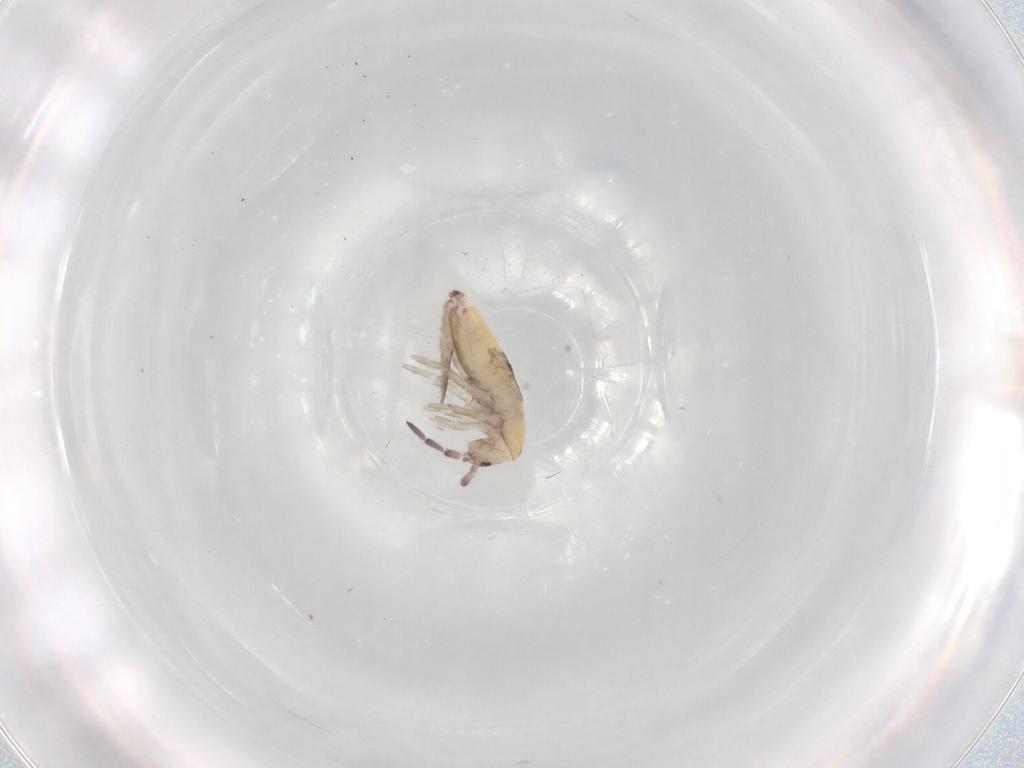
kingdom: Animalia
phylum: Arthropoda
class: Collembola
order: Entomobryomorpha
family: Entomobryidae
